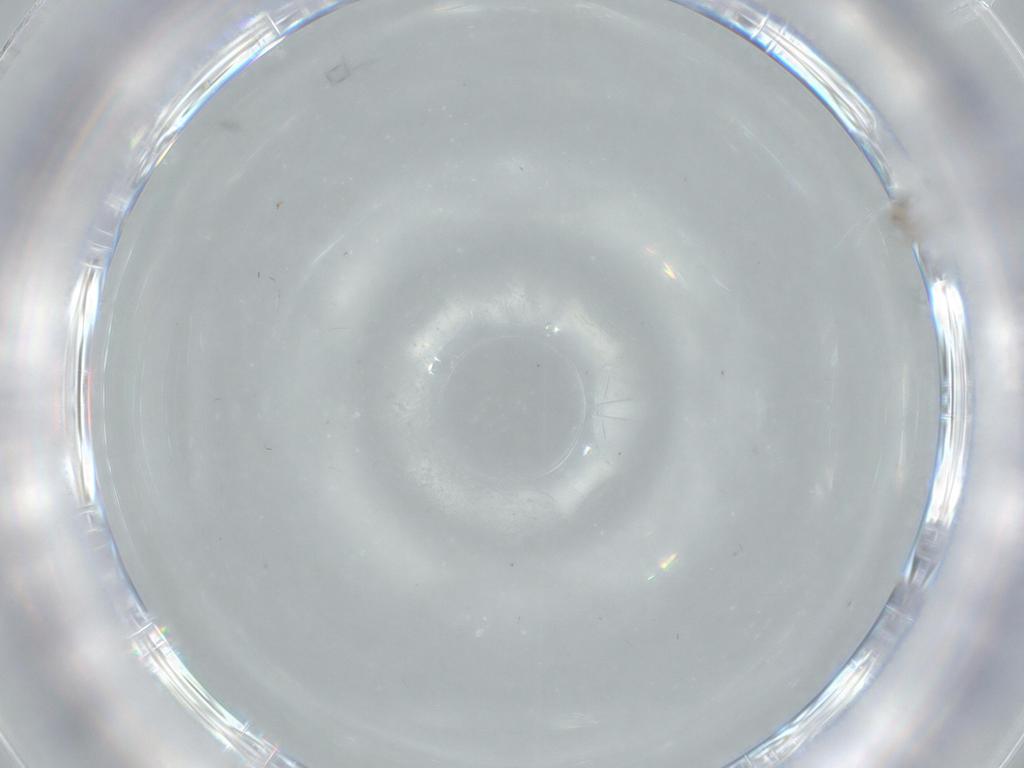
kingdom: Animalia
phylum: Arthropoda
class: Insecta
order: Diptera
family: Cecidomyiidae
